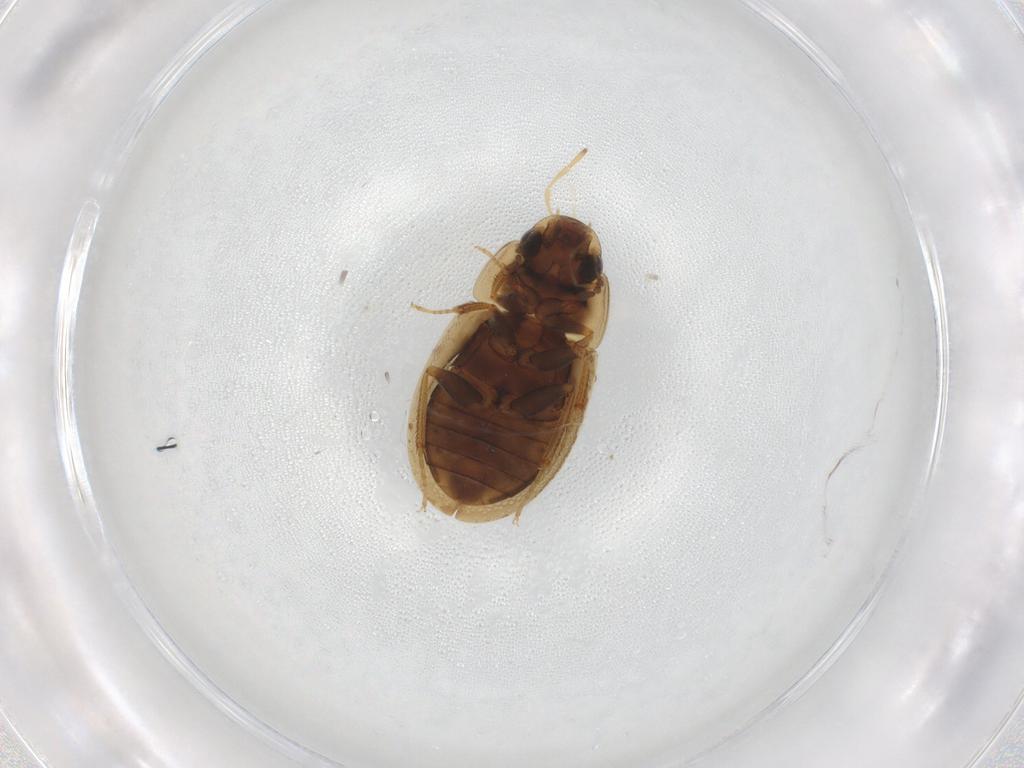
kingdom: Animalia
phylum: Arthropoda
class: Insecta
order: Coleoptera
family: Hydrophilidae
